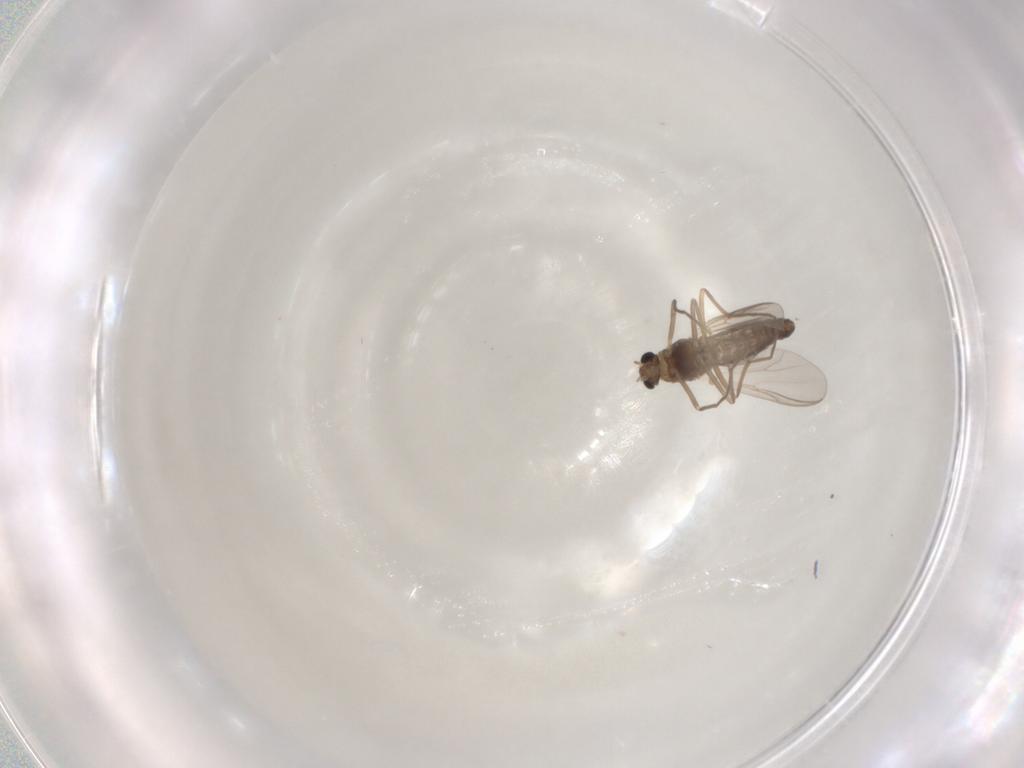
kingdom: Animalia
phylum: Arthropoda
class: Insecta
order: Diptera
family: Chironomidae
